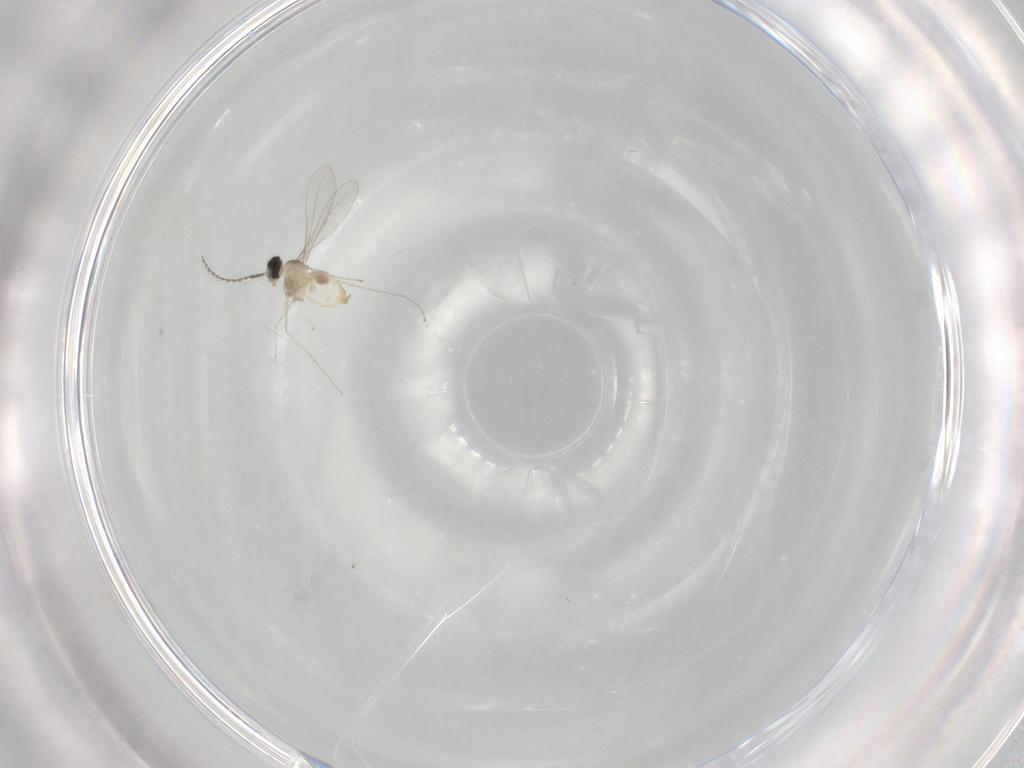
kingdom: Animalia
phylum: Arthropoda
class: Insecta
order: Diptera
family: Cecidomyiidae
